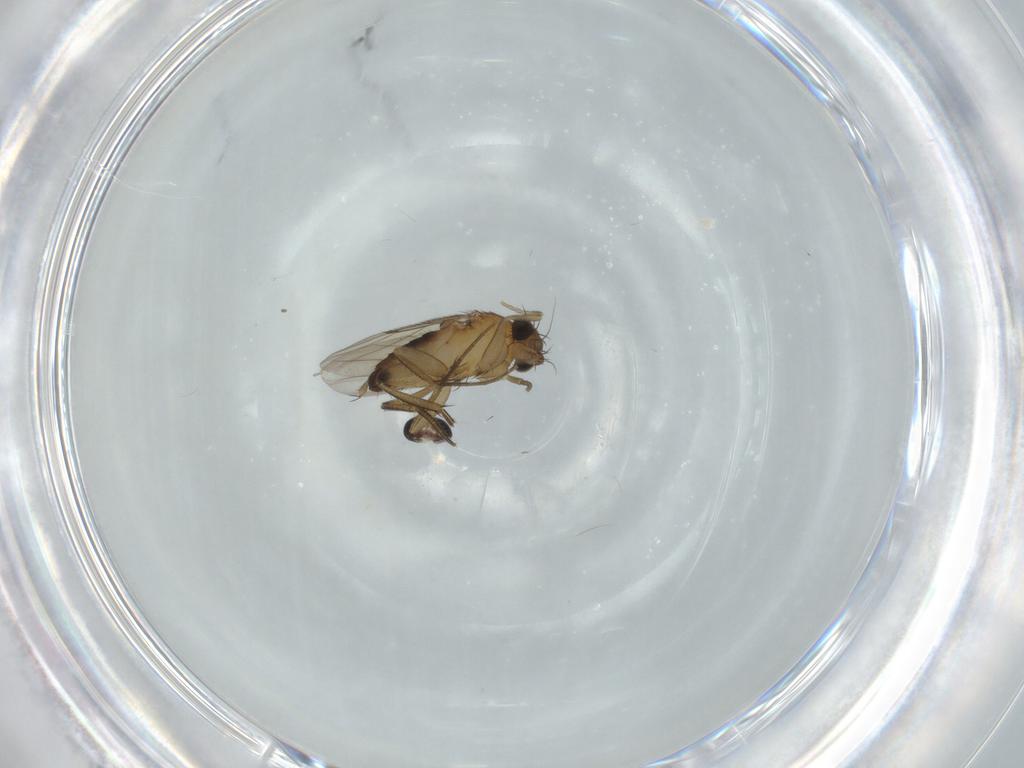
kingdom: Animalia
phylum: Arthropoda
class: Insecta
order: Diptera
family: Phoridae
